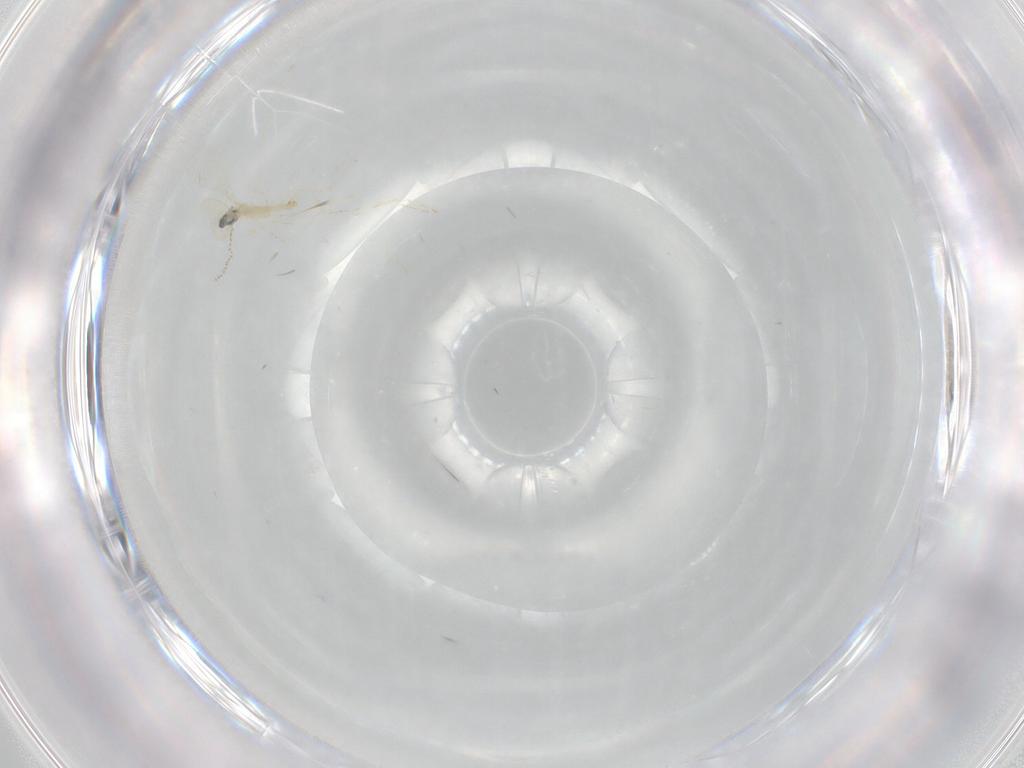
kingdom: Animalia
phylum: Arthropoda
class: Insecta
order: Diptera
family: Cecidomyiidae
